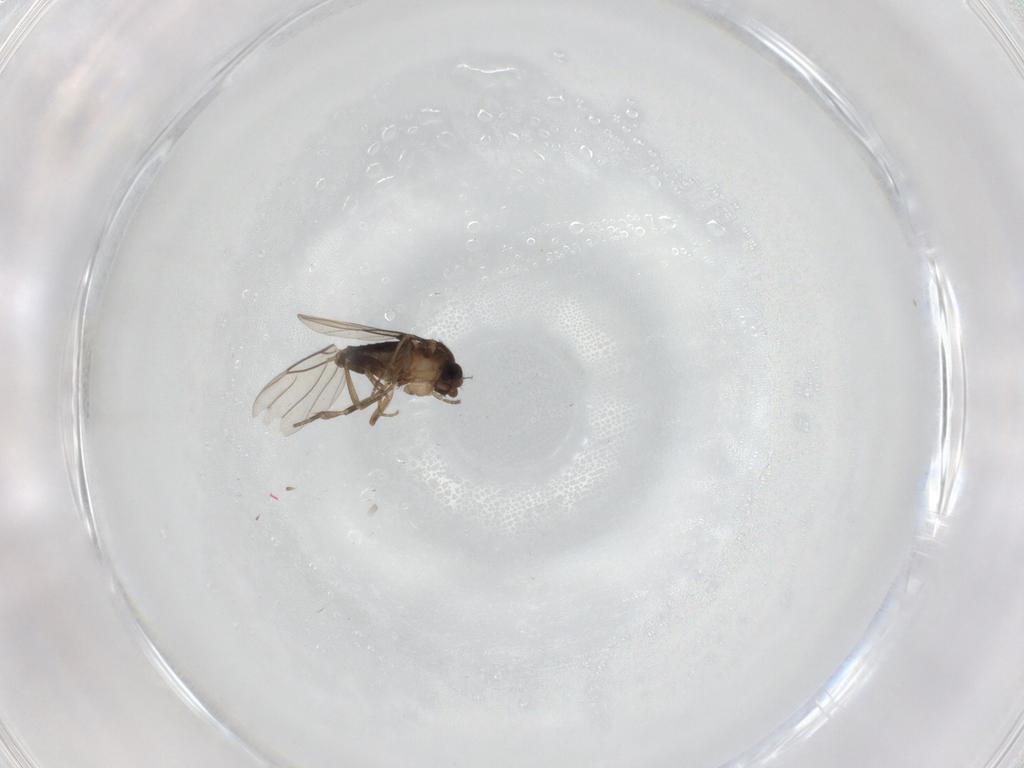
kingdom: Animalia
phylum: Arthropoda
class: Insecta
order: Diptera
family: Phoridae
